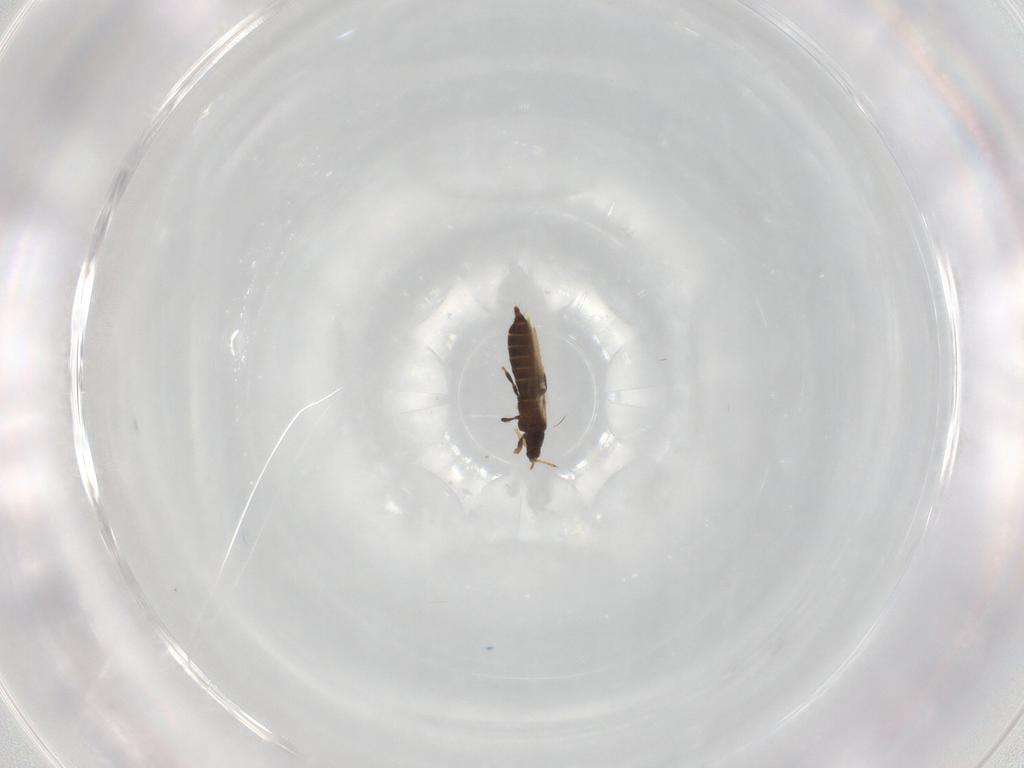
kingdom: Animalia
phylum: Arthropoda
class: Insecta
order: Thysanoptera
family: Thripidae
